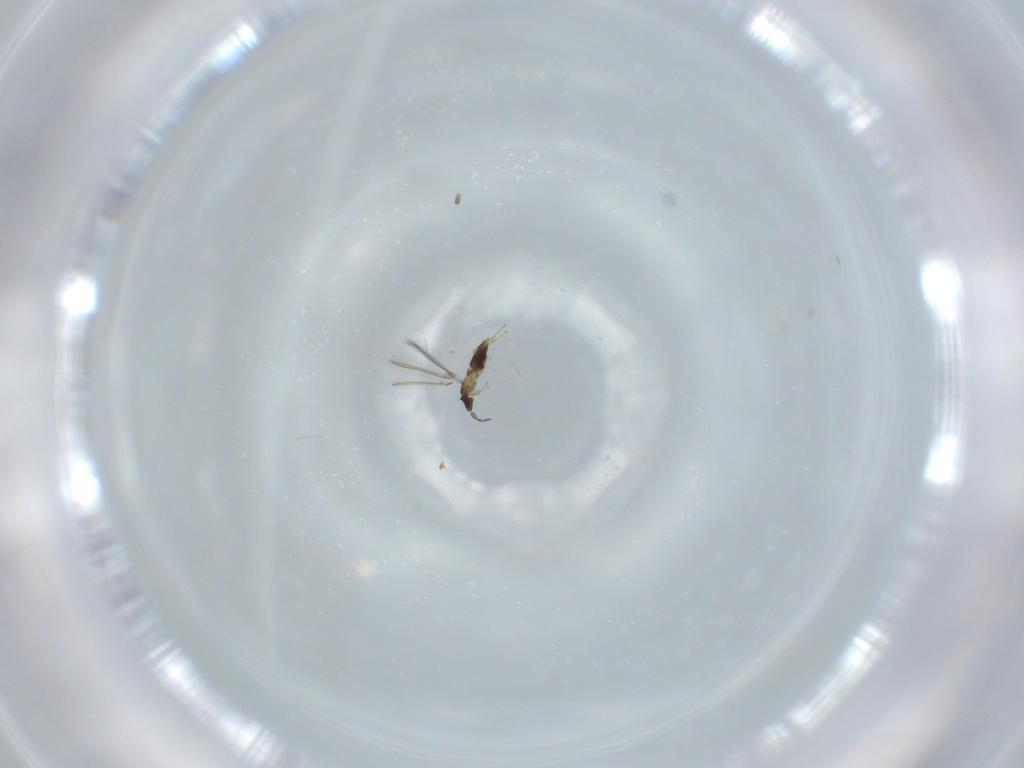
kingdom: Animalia
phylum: Arthropoda
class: Insecta
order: Hymenoptera
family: Mymaridae
